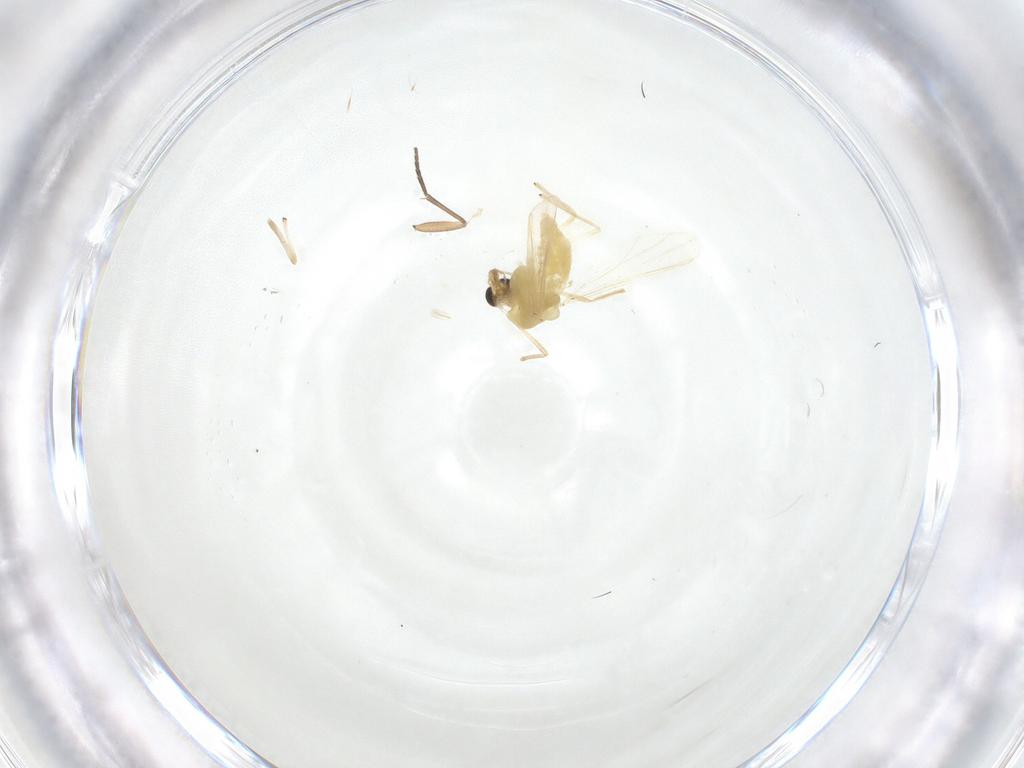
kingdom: Animalia
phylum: Arthropoda
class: Insecta
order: Diptera
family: Chironomidae
